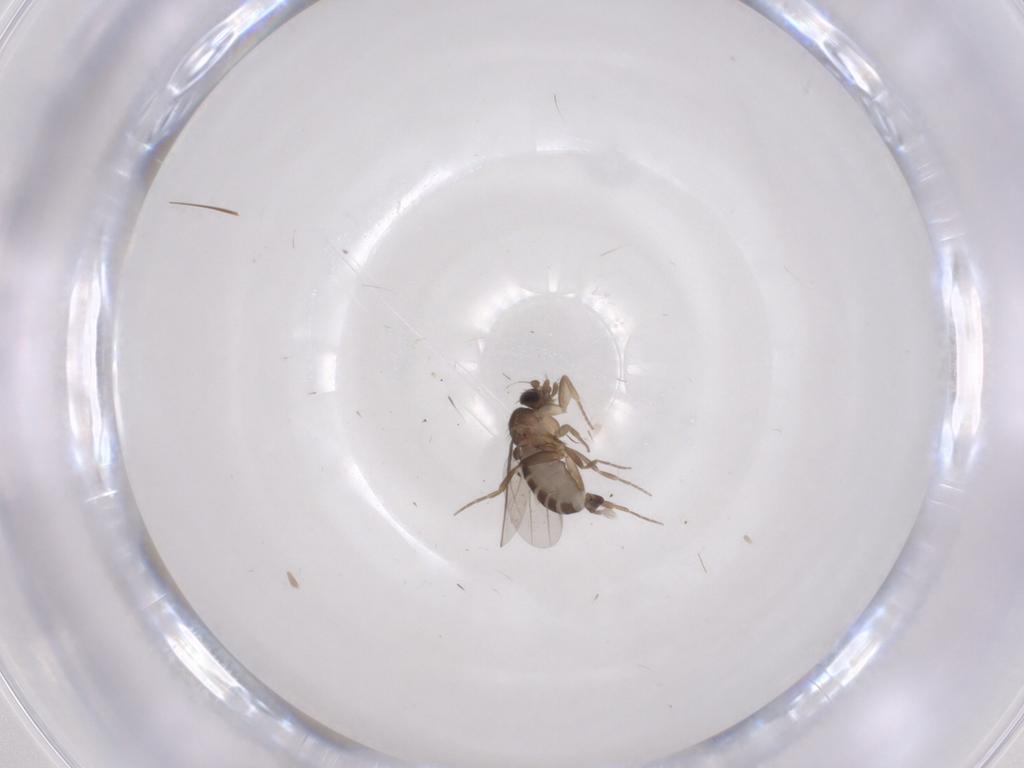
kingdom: Animalia
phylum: Arthropoda
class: Insecta
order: Diptera
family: Phoridae
